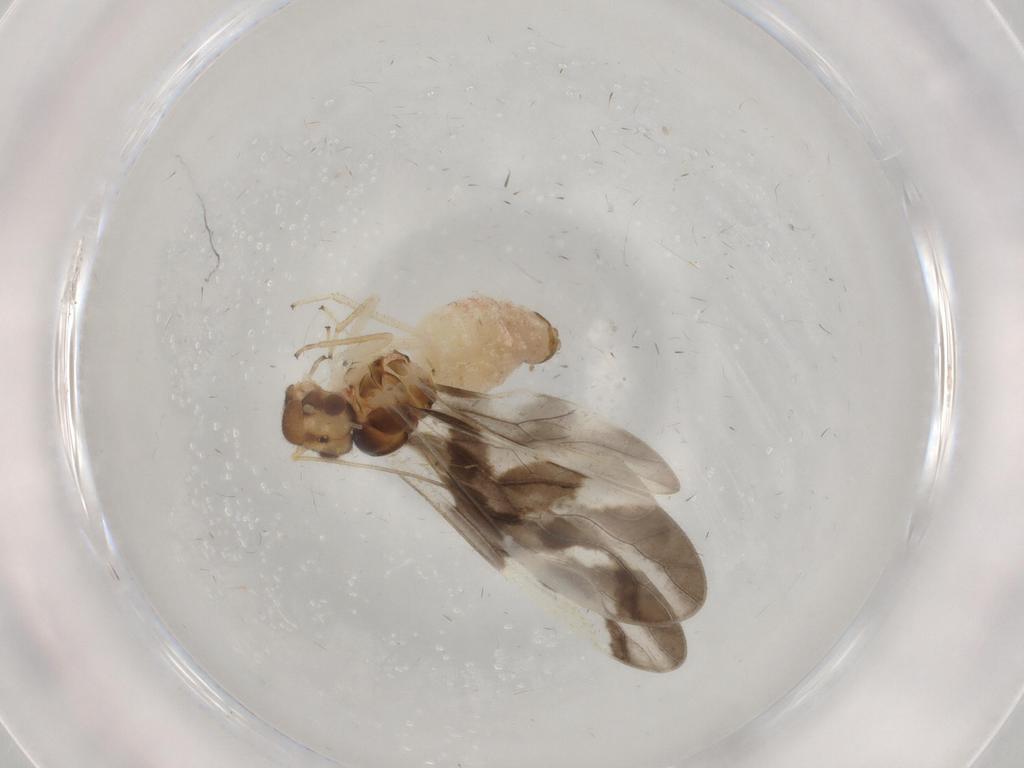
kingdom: Animalia
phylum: Arthropoda
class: Insecta
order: Psocodea
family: Caeciliusidae
